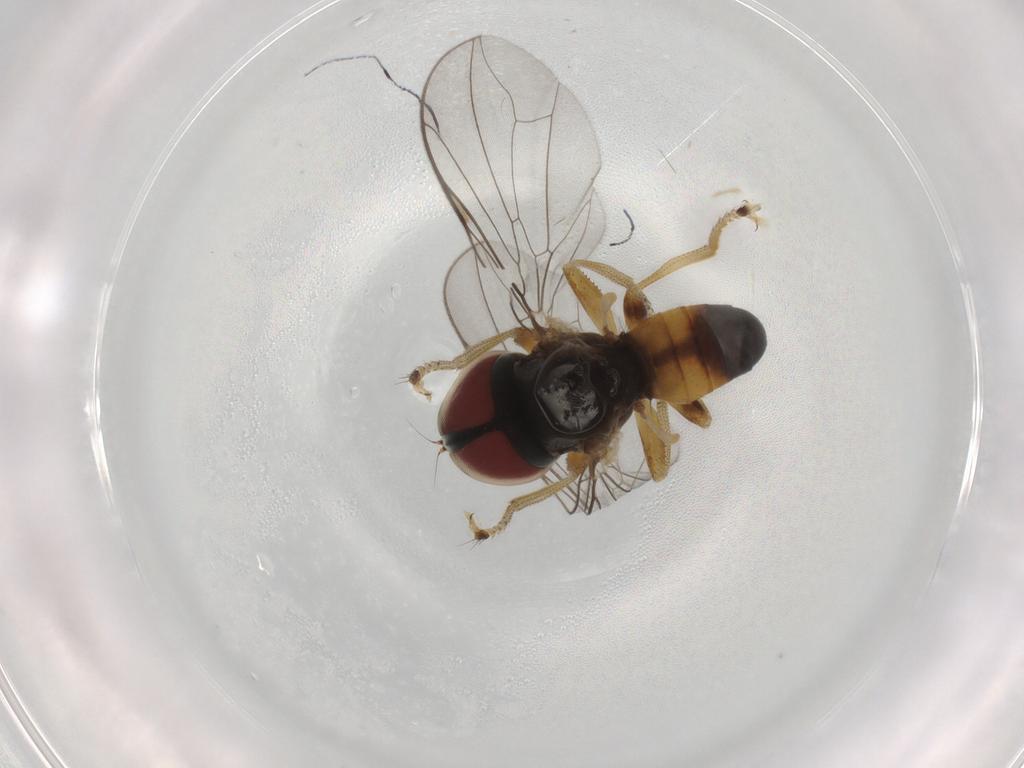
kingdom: Animalia
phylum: Arthropoda
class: Insecta
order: Diptera
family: Pipunculidae
